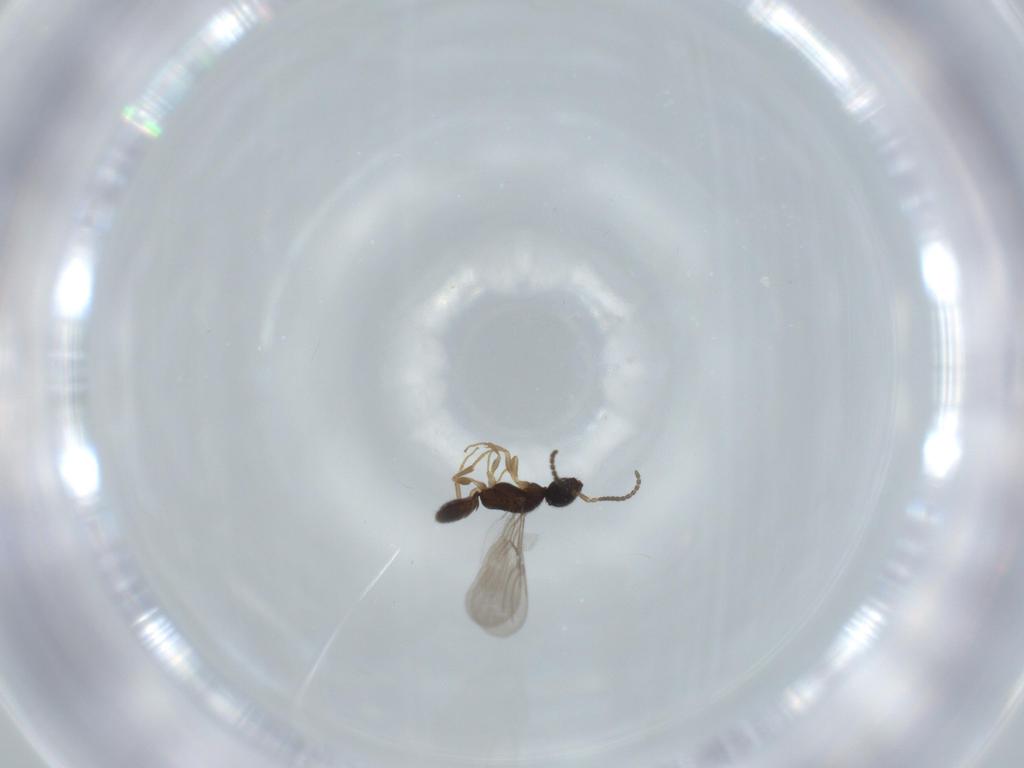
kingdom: Animalia
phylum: Arthropoda
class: Insecta
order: Hymenoptera
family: Bethylidae
